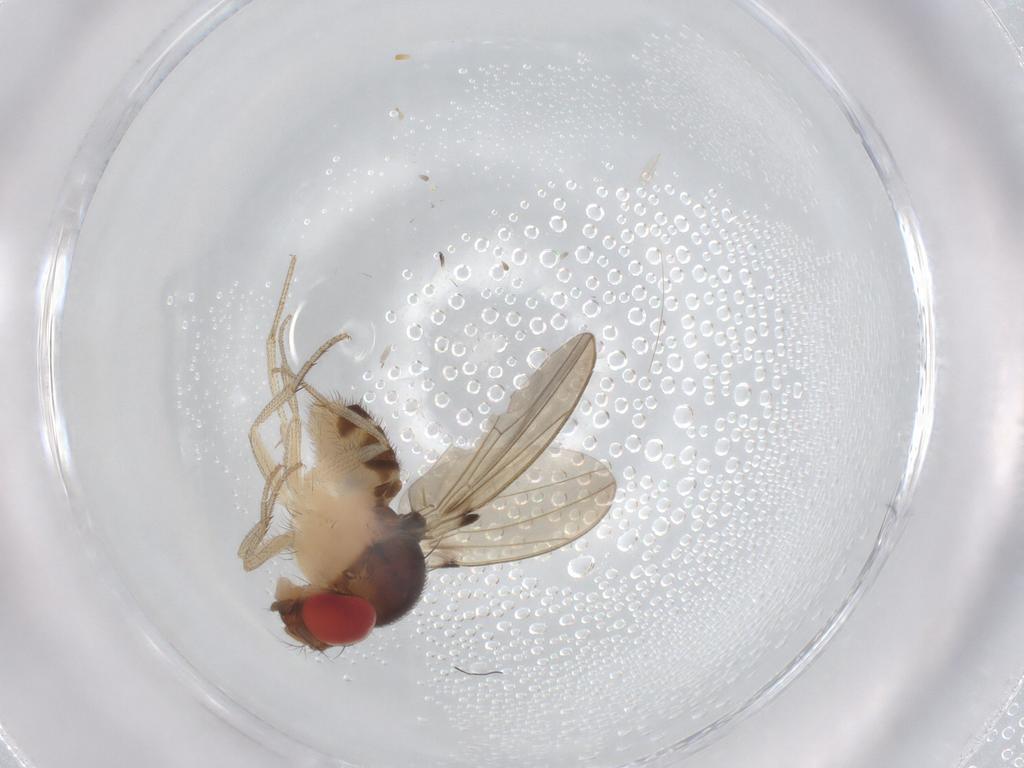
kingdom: Animalia
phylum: Arthropoda
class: Insecta
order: Diptera
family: Drosophilidae
